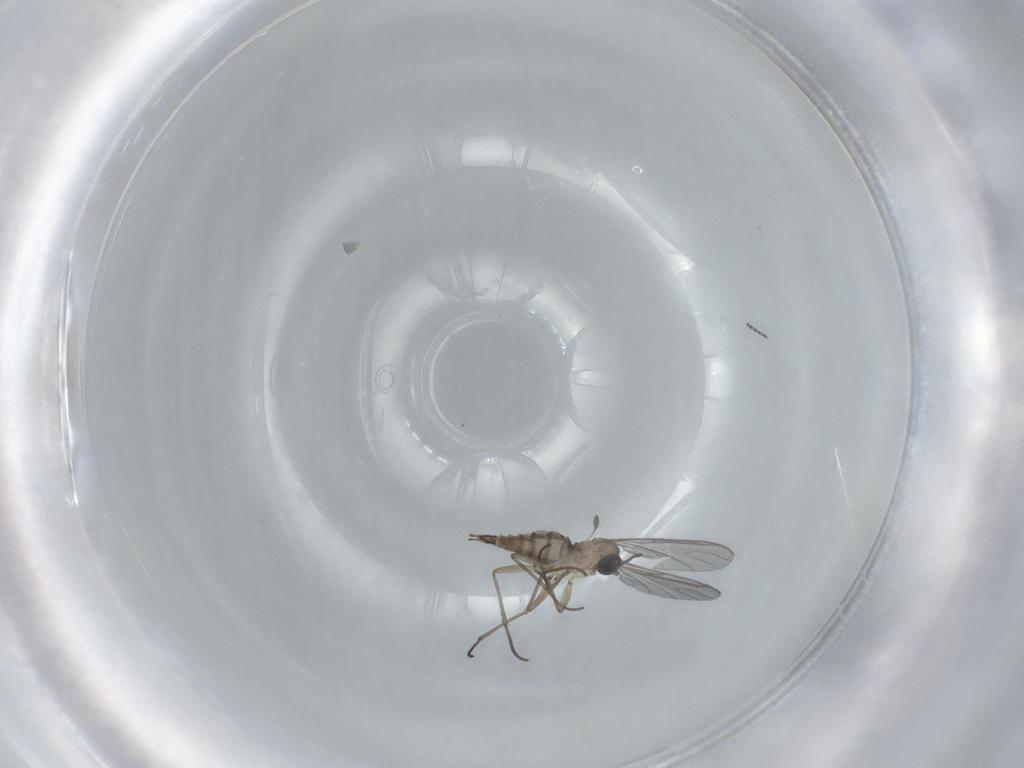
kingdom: Animalia
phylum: Arthropoda
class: Insecta
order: Diptera
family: Sciaridae
